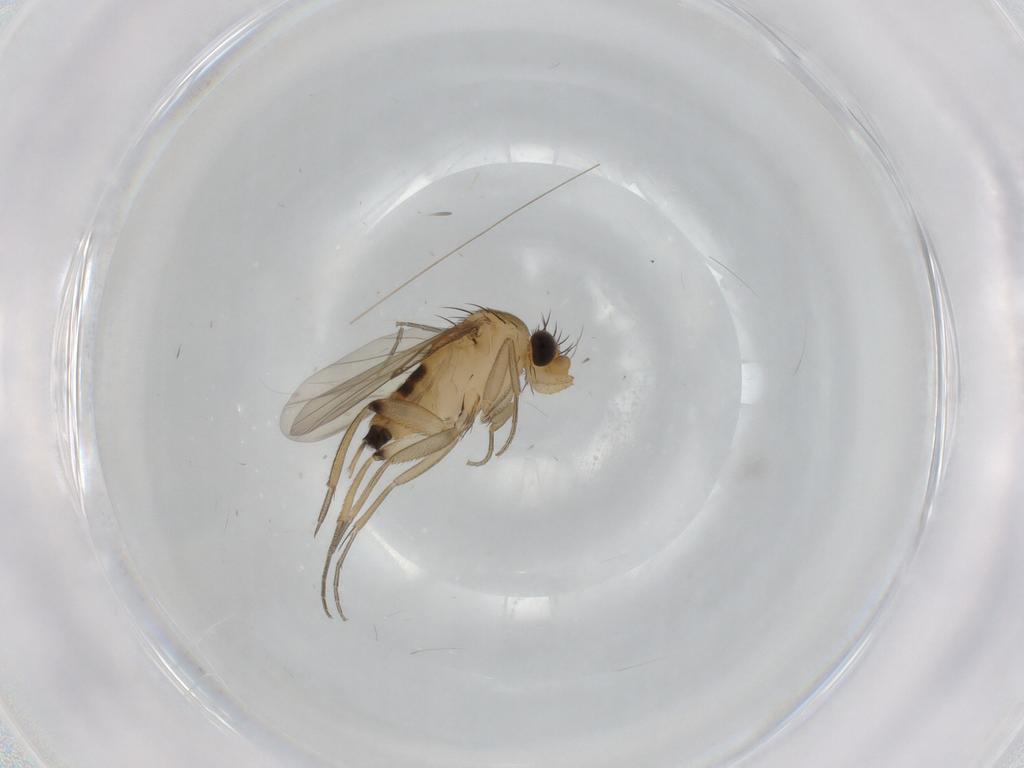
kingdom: Animalia
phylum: Arthropoda
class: Insecta
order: Diptera
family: Phoridae
